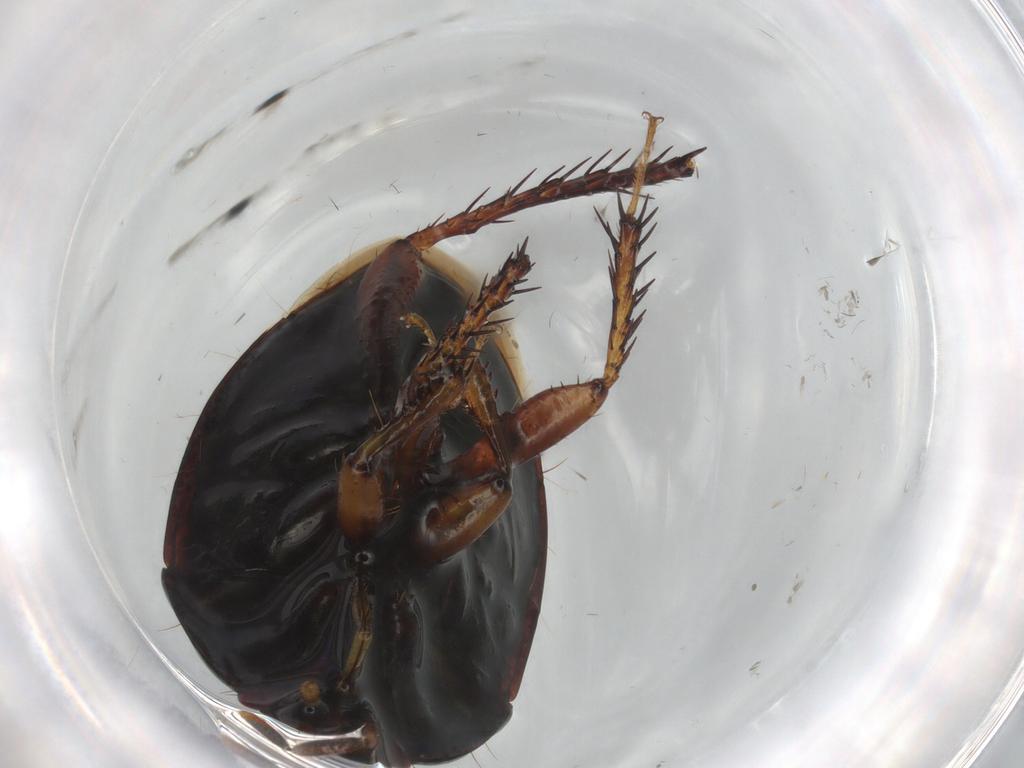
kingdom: Animalia
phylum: Arthropoda
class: Insecta
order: Hemiptera
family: Cydnidae
